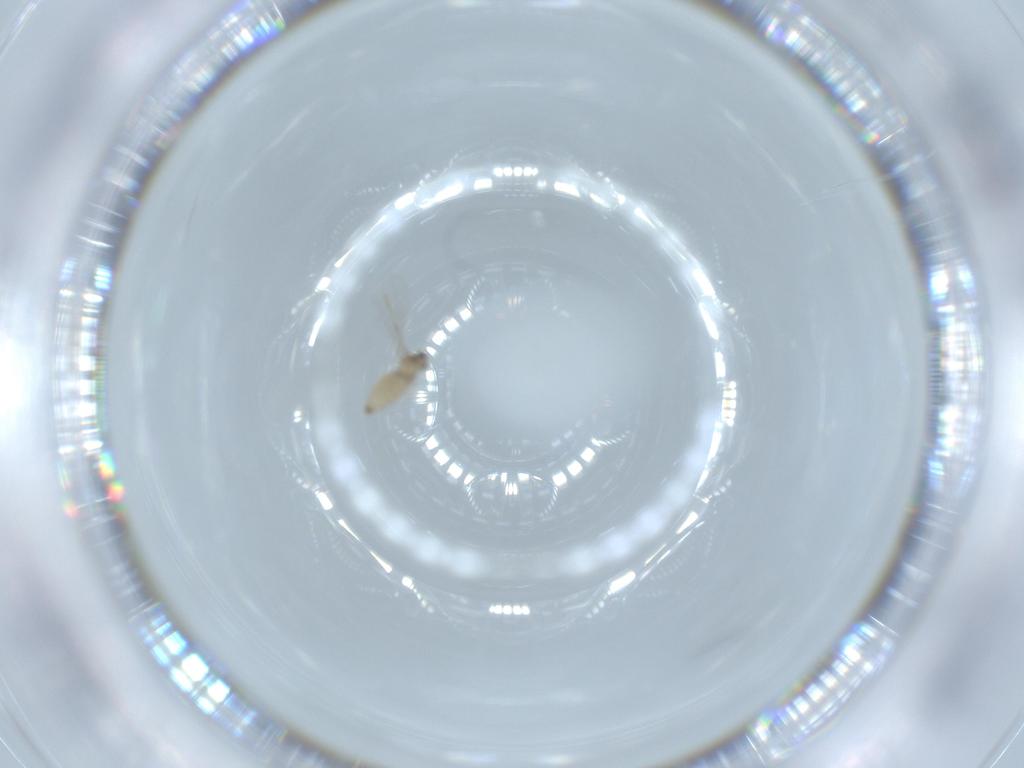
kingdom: Animalia
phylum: Arthropoda
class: Insecta
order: Diptera
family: Cecidomyiidae
